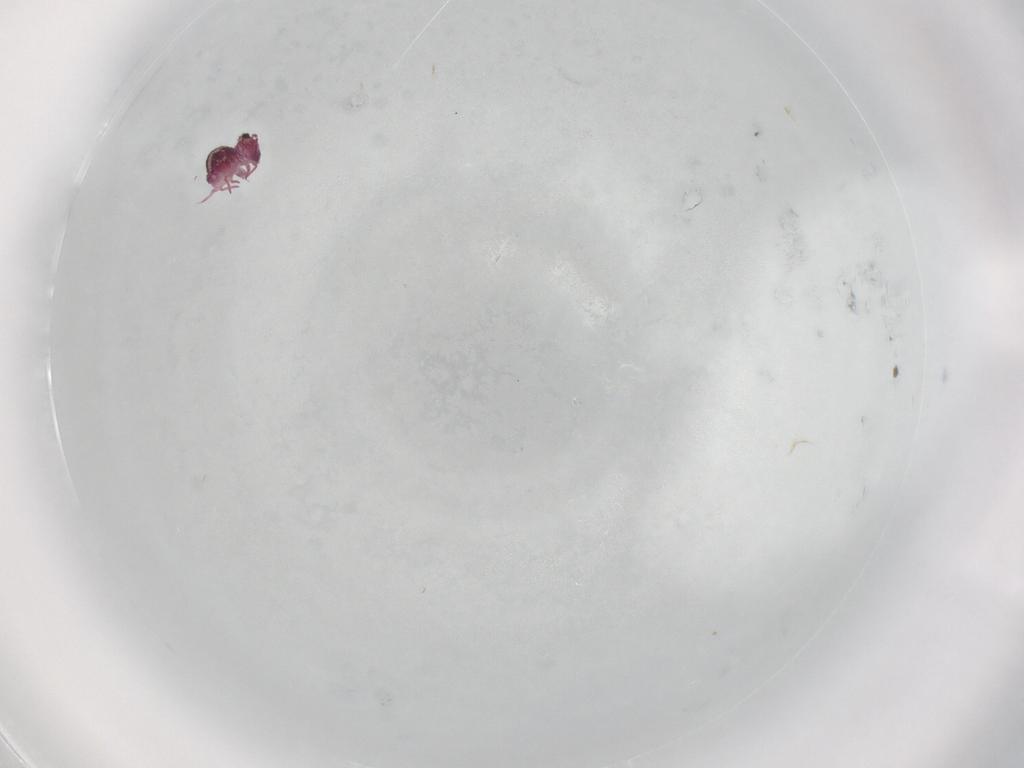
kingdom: Animalia
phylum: Arthropoda
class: Collembola
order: Symphypleona
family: Sminthurididae
